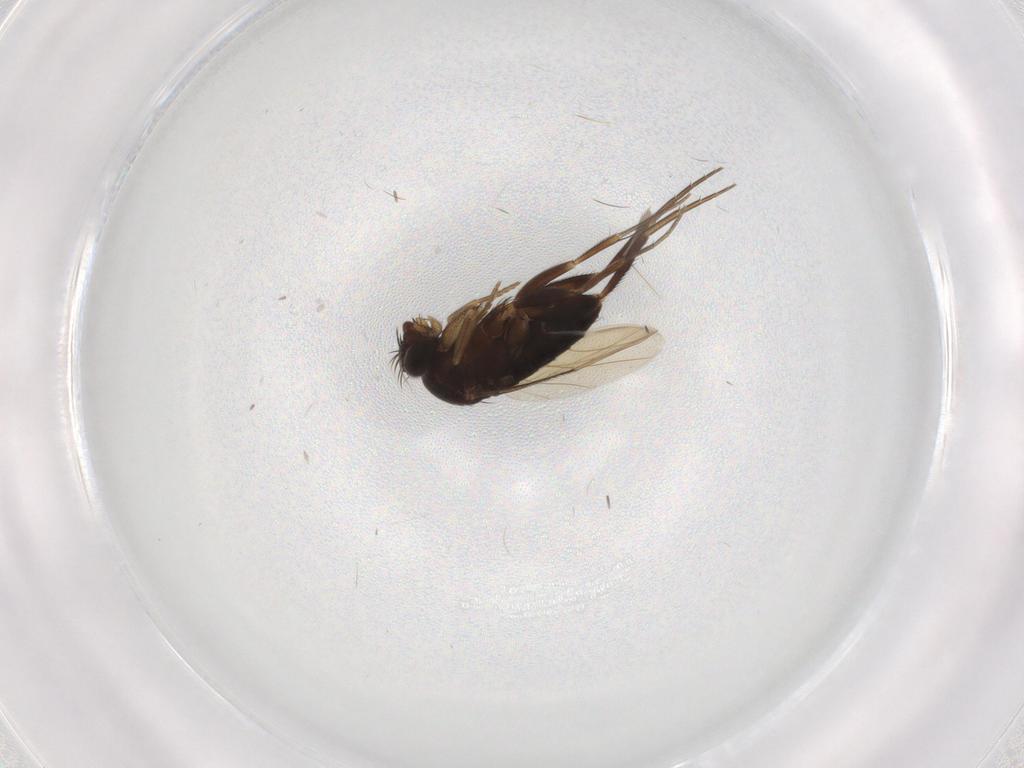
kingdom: Animalia
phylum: Arthropoda
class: Insecta
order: Diptera
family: Phoridae
